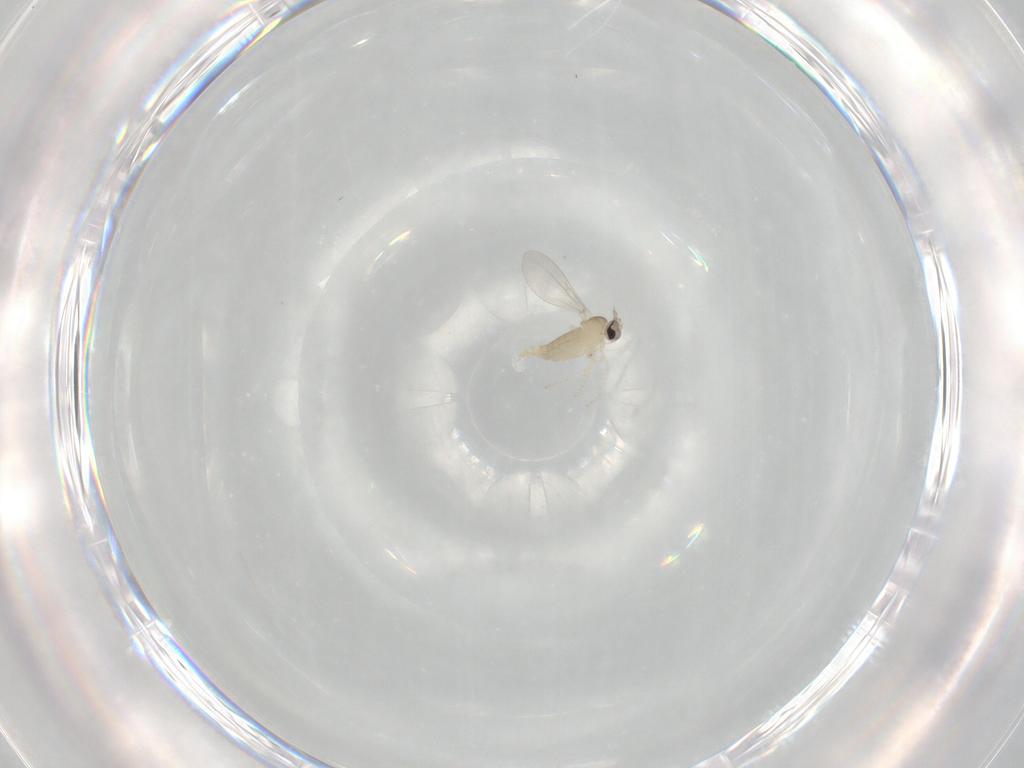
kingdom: Animalia
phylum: Arthropoda
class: Insecta
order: Diptera
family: Cecidomyiidae
